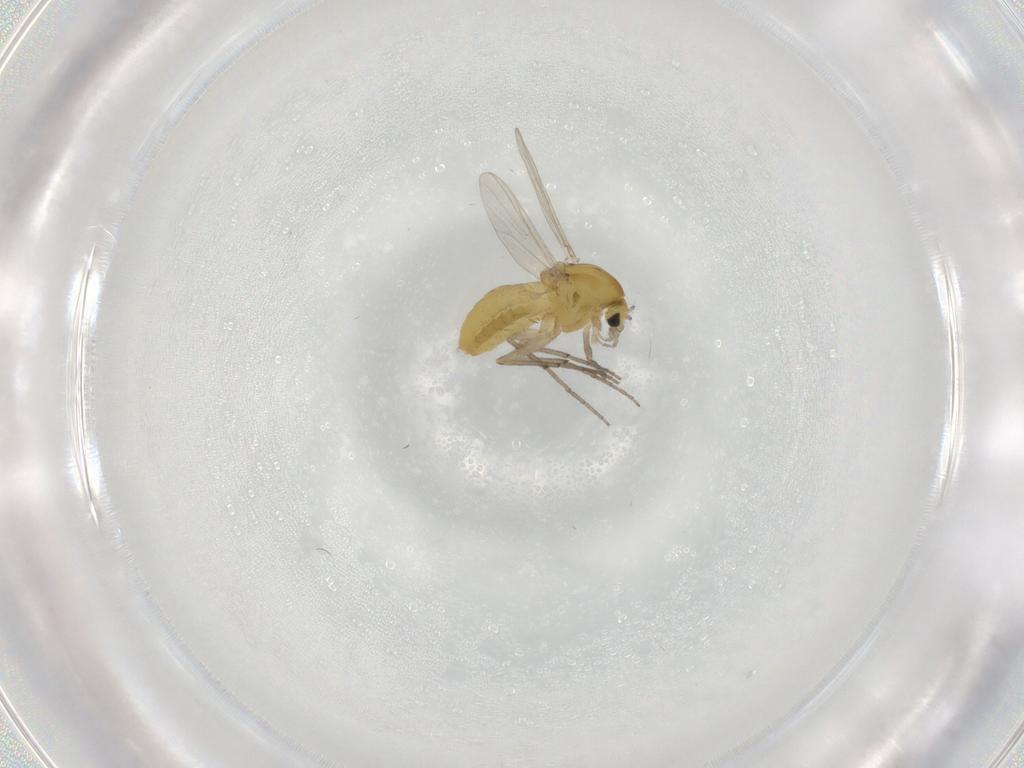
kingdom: Animalia
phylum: Arthropoda
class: Insecta
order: Diptera
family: Chironomidae
